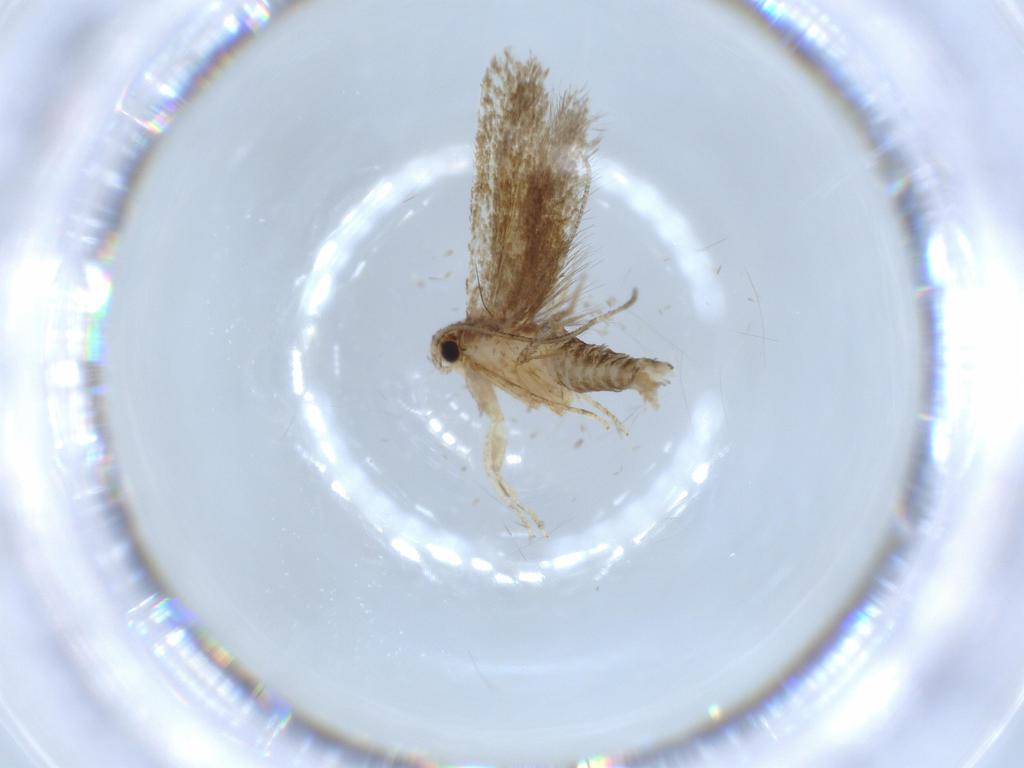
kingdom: Animalia
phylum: Arthropoda
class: Insecta
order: Lepidoptera
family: Tineidae
